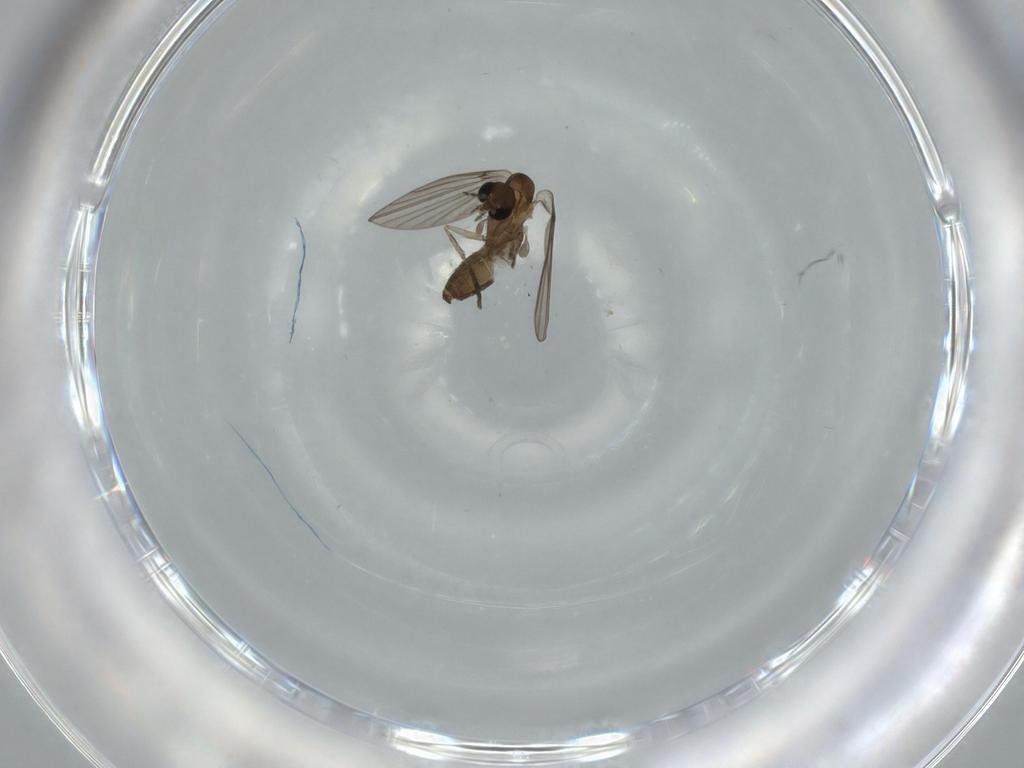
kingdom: Animalia
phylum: Arthropoda
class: Insecta
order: Diptera
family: Psychodidae
